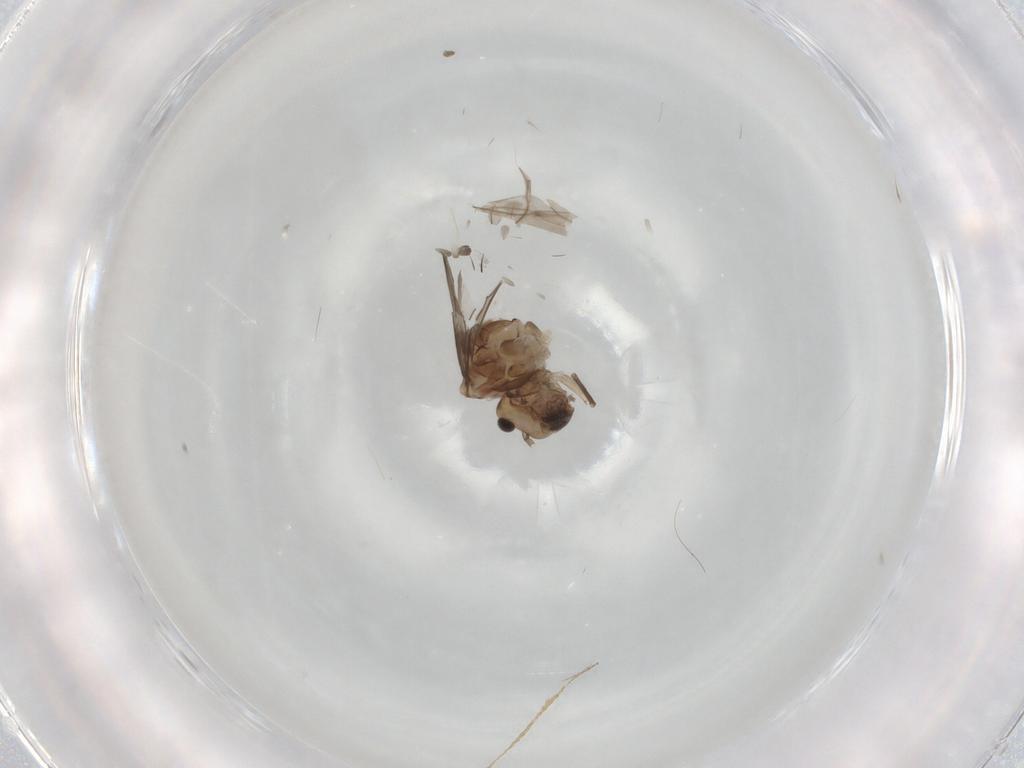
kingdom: Animalia
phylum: Arthropoda
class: Insecta
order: Psocodea
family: Peripsocidae
